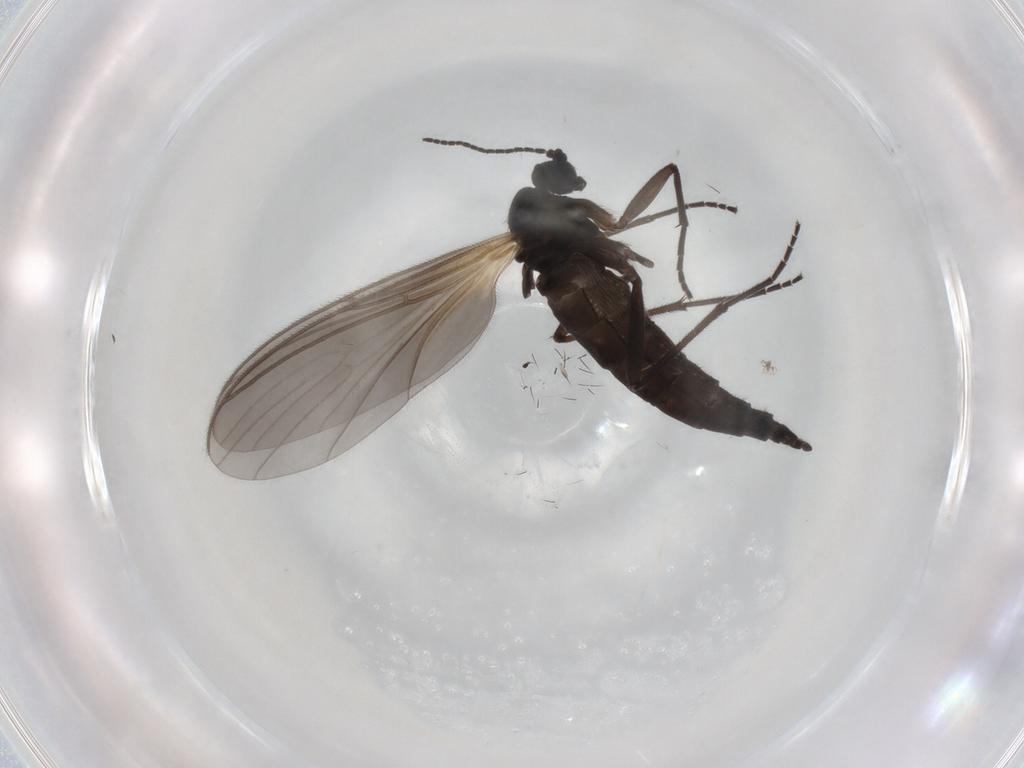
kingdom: Animalia
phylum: Arthropoda
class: Insecta
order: Diptera
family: Sciaridae
